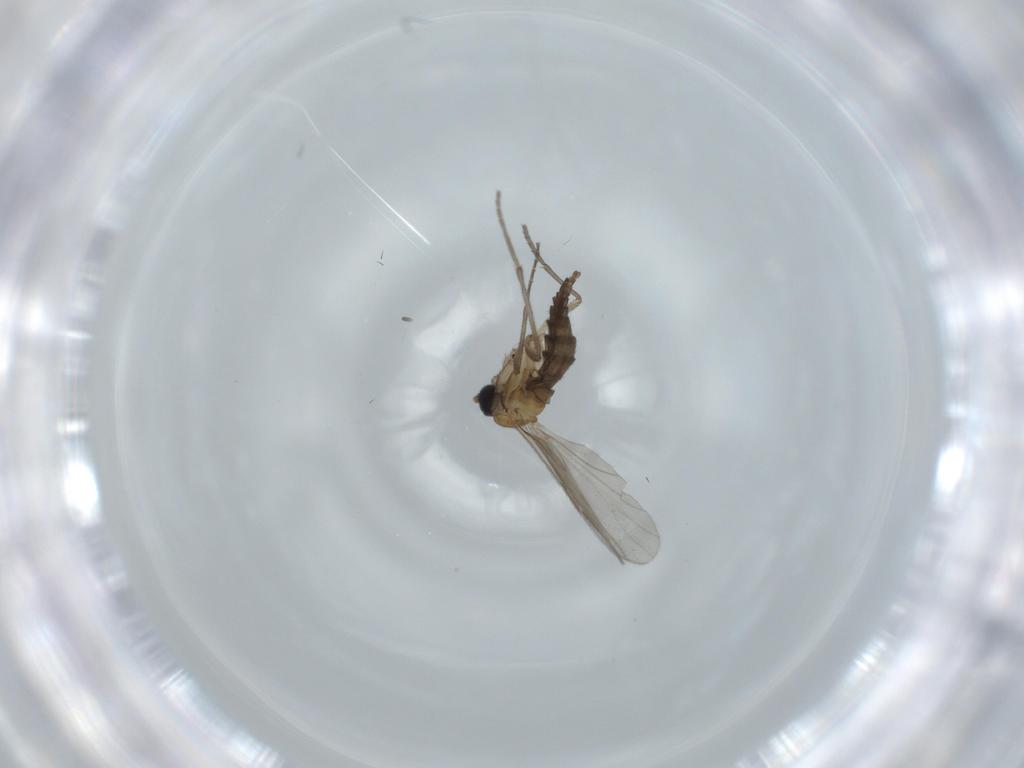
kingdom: Animalia
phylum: Arthropoda
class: Insecta
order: Diptera
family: Sciaridae
